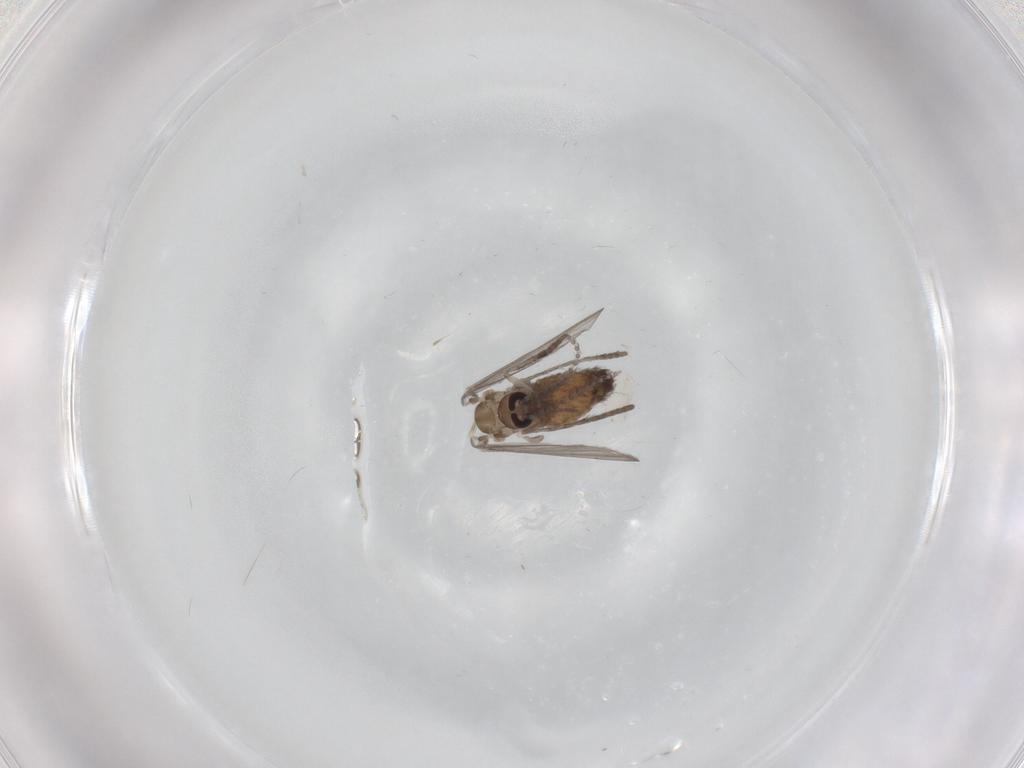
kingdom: Animalia
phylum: Arthropoda
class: Insecta
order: Diptera
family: Psychodidae
